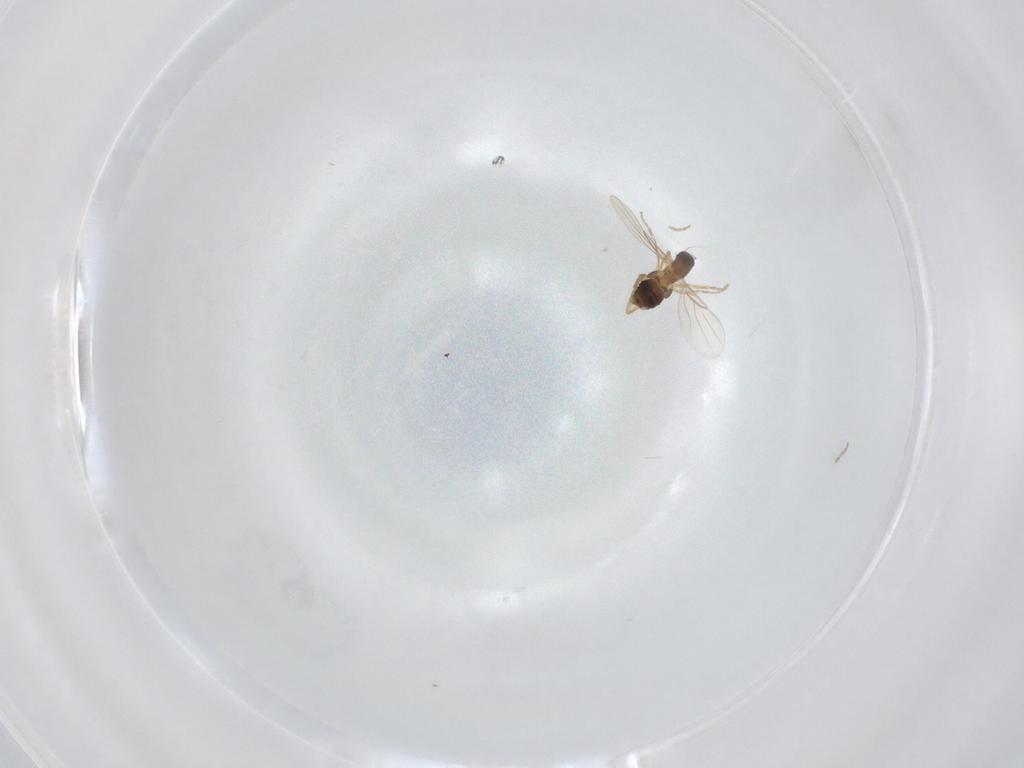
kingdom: Animalia
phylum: Arthropoda
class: Insecta
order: Diptera
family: Phoridae
